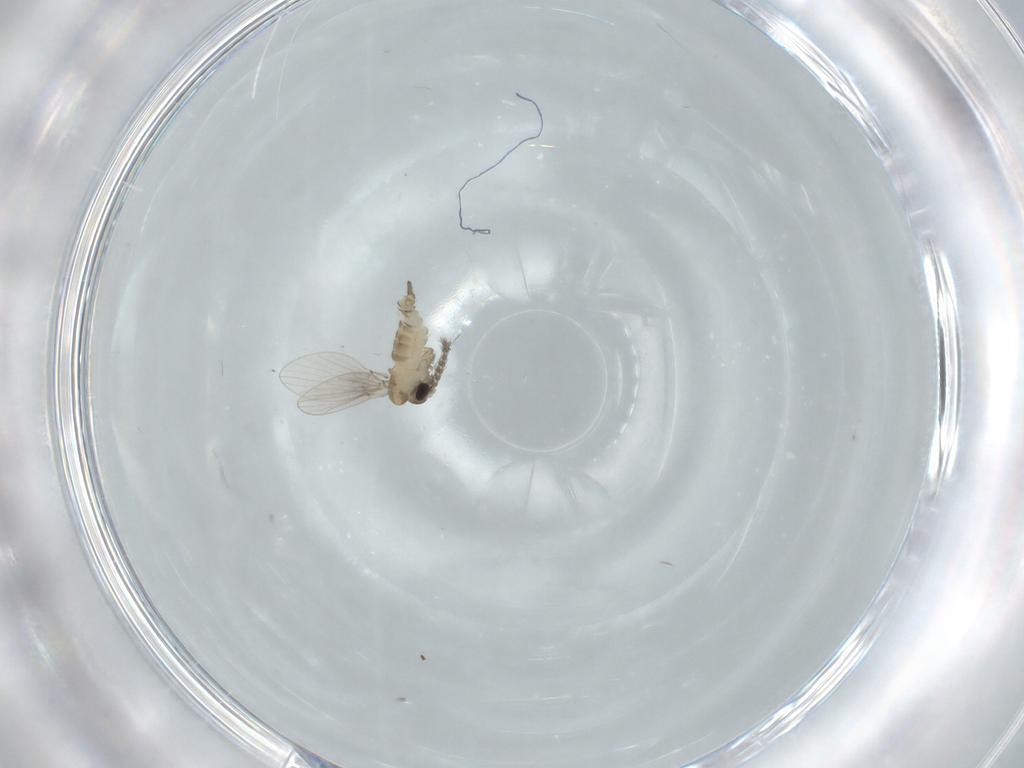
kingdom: Animalia
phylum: Arthropoda
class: Insecta
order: Diptera
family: Psychodidae
